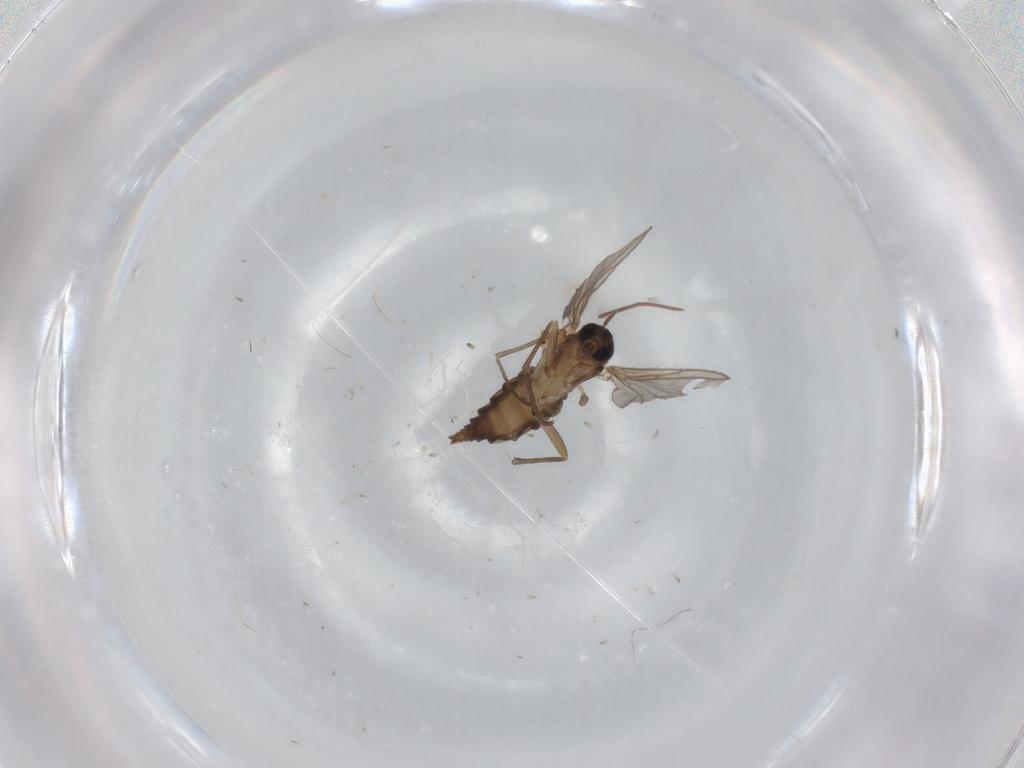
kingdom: Animalia
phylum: Arthropoda
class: Insecta
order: Diptera
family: Sciaridae
